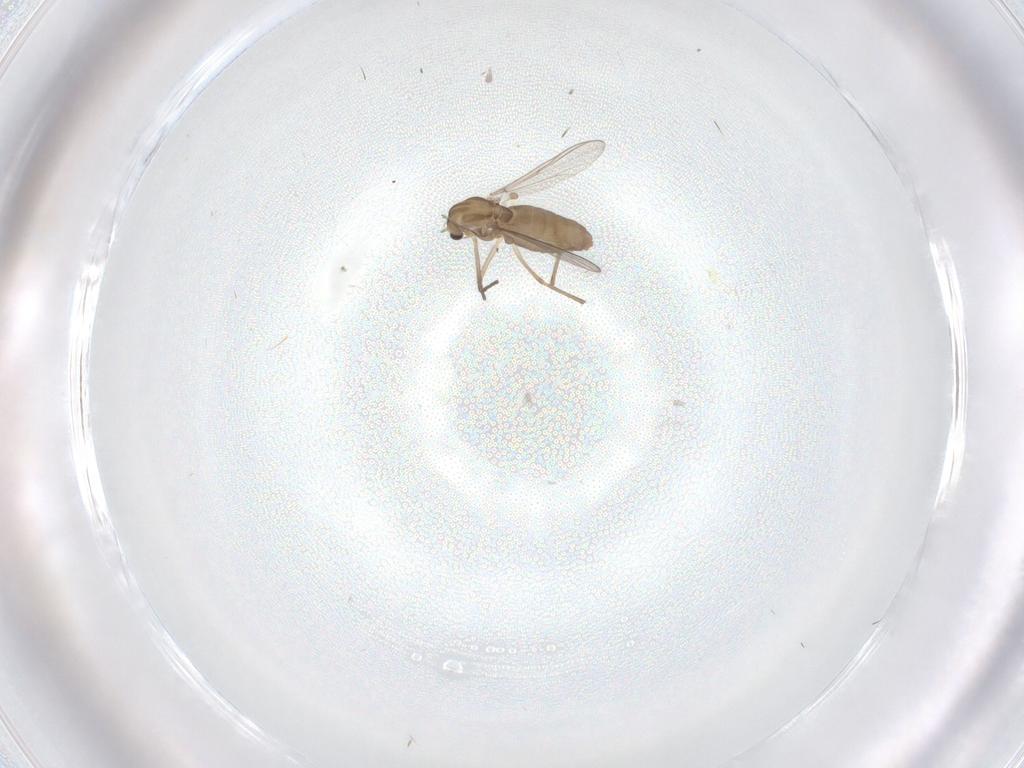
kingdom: Animalia
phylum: Arthropoda
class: Insecta
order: Diptera
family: Chironomidae
